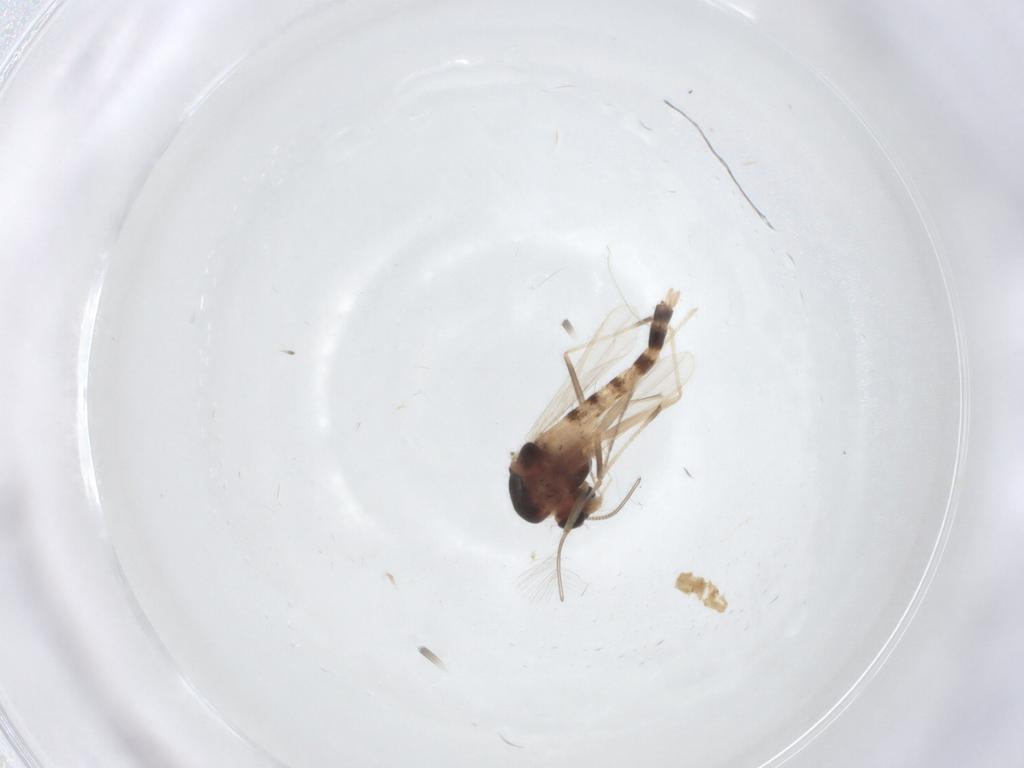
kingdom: Animalia
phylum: Arthropoda
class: Insecta
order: Diptera
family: Chironomidae
